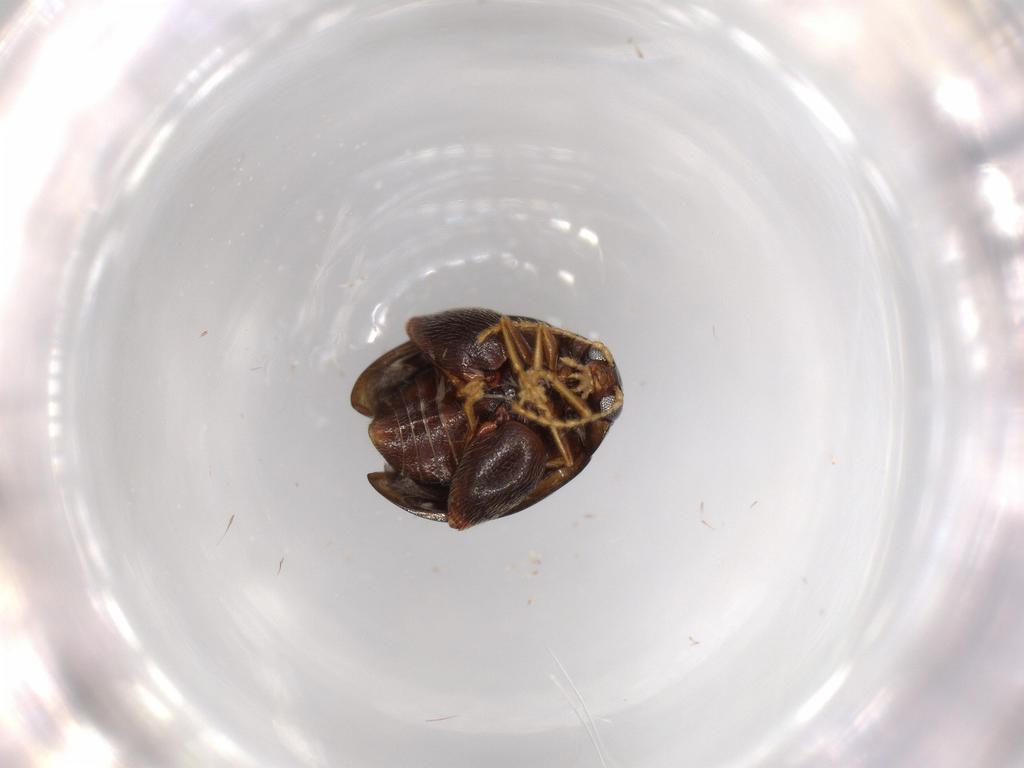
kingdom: Animalia
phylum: Arthropoda
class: Insecta
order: Coleoptera
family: Chrysomelidae
